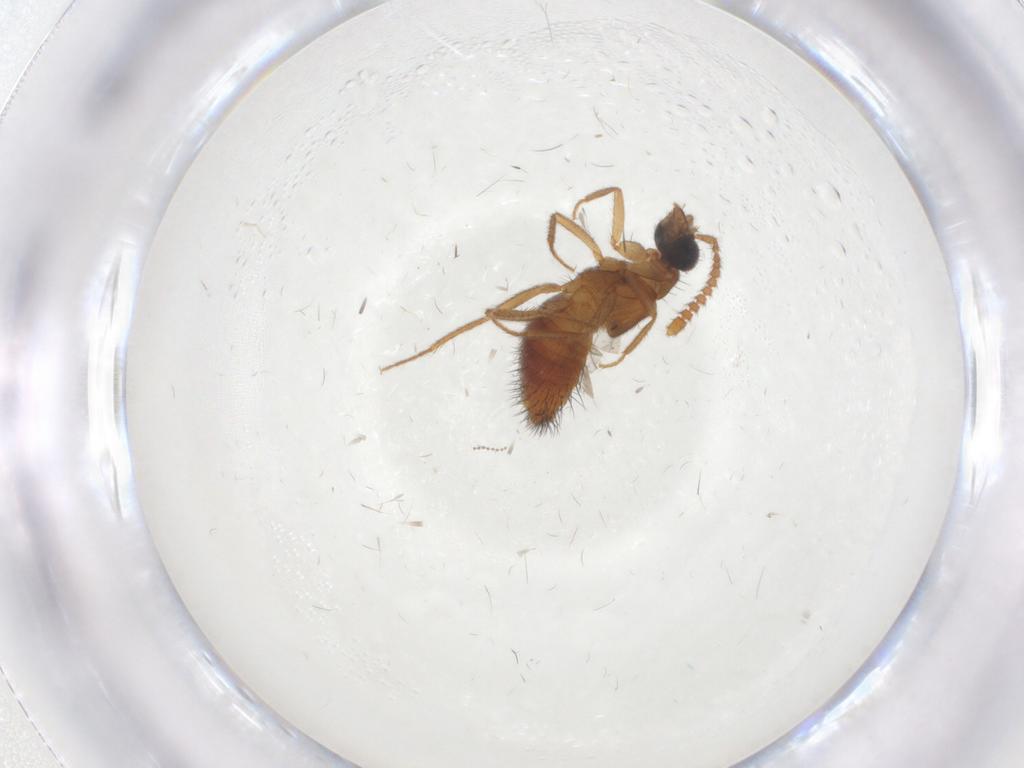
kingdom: Animalia
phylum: Arthropoda
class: Insecta
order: Coleoptera
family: Staphylinidae
